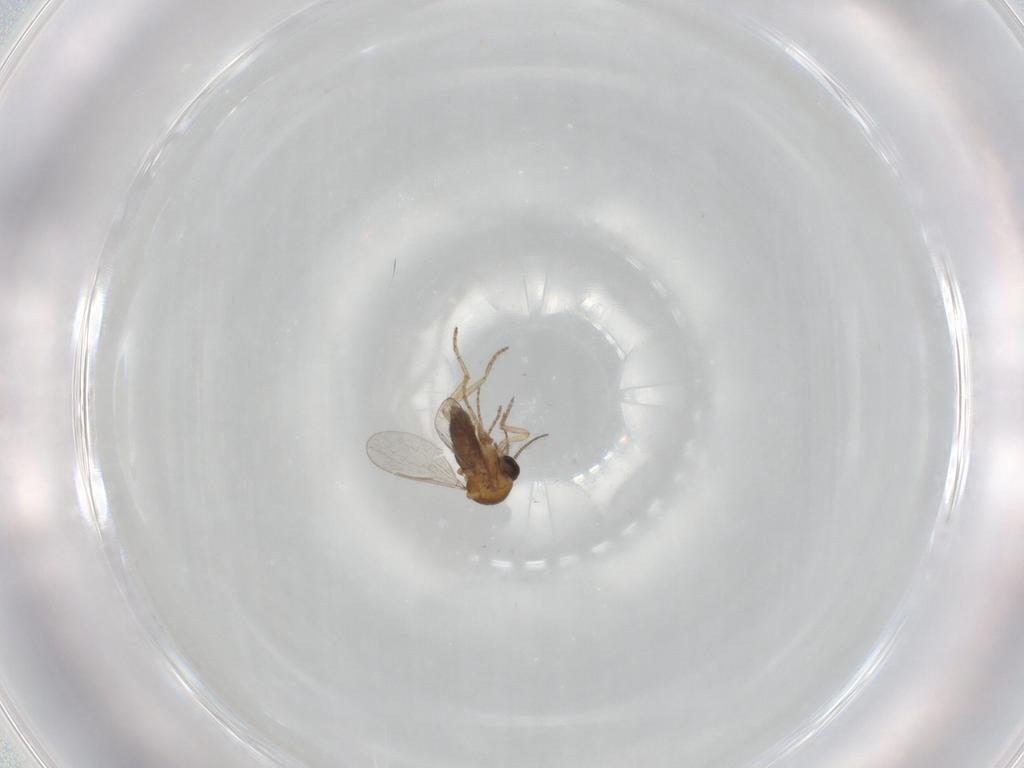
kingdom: Animalia
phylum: Arthropoda
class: Insecta
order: Diptera
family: Ceratopogonidae
